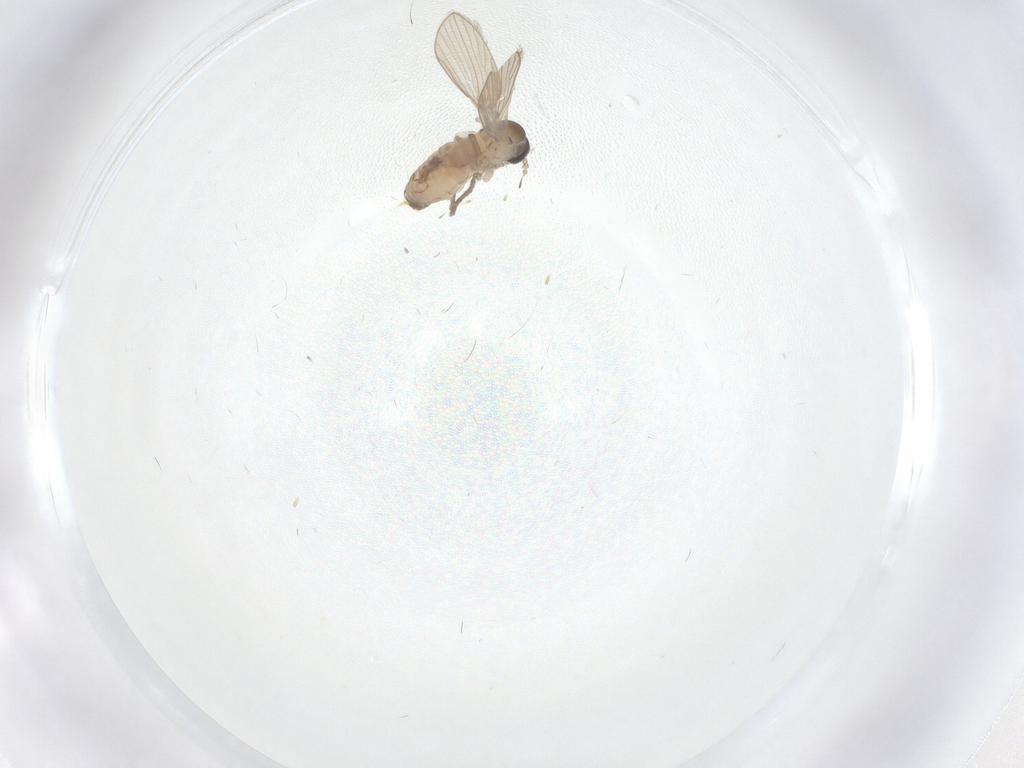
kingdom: Animalia
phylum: Arthropoda
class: Insecta
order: Diptera
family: Psychodidae
